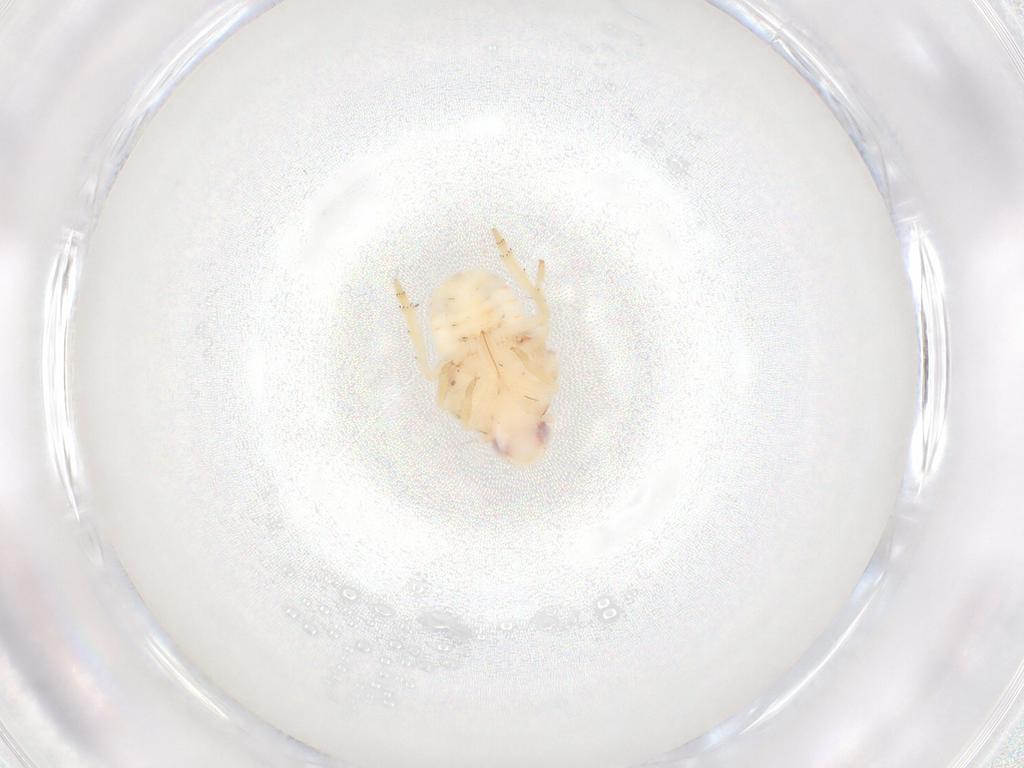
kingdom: Animalia
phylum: Arthropoda
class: Insecta
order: Hemiptera
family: Flatidae
